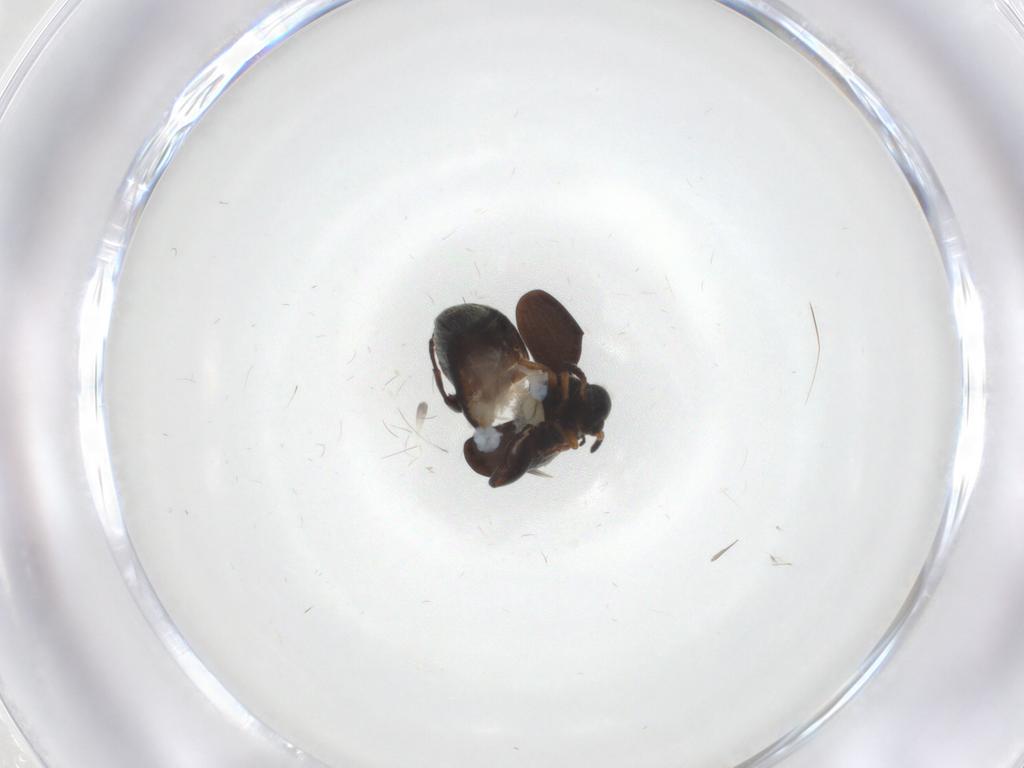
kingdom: Animalia
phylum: Arthropoda
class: Insecta
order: Coleoptera
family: Chrysomelidae
